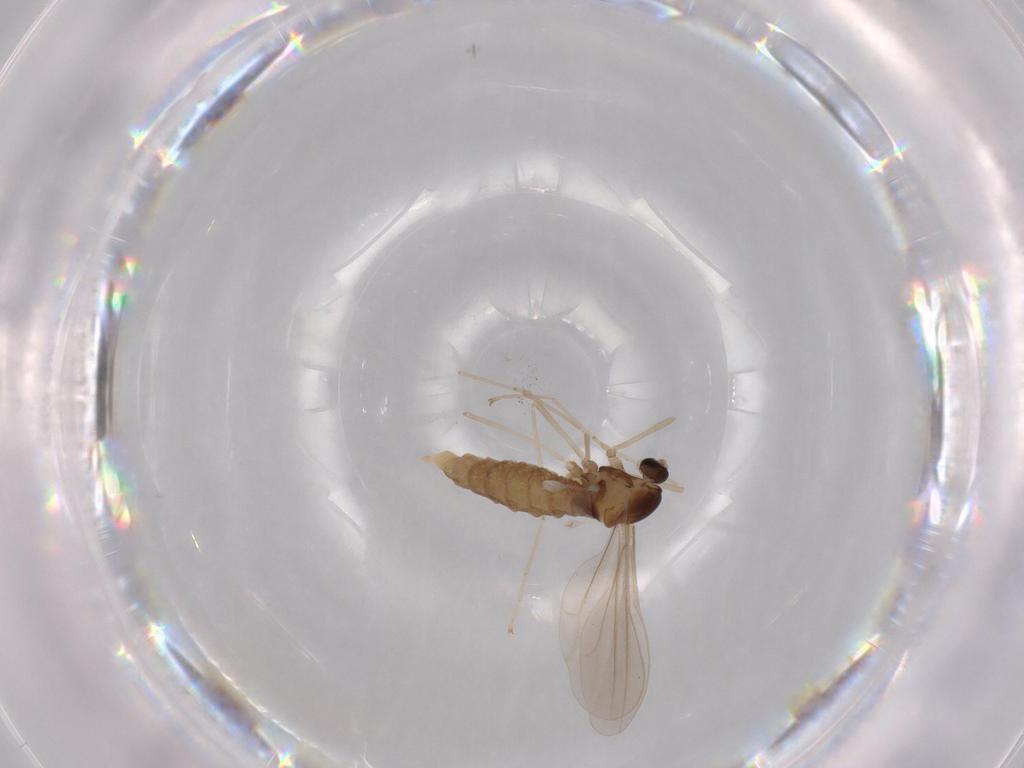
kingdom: Animalia
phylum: Arthropoda
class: Insecta
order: Diptera
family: Cecidomyiidae
